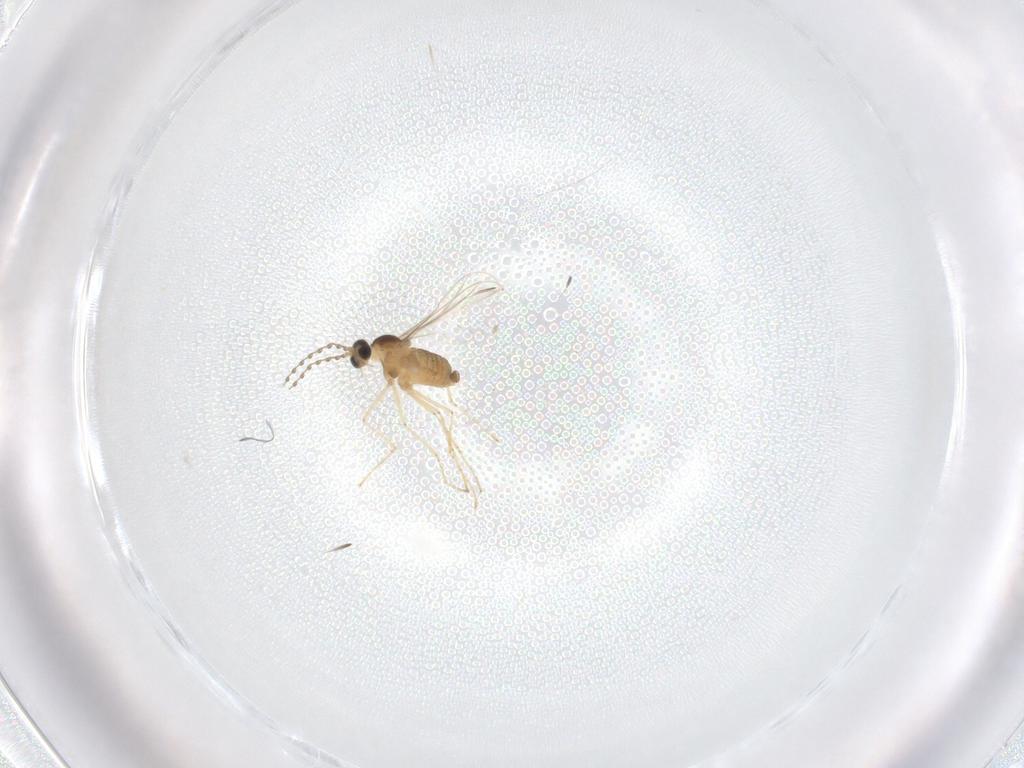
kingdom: Animalia
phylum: Arthropoda
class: Insecta
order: Diptera
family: Cecidomyiidae
